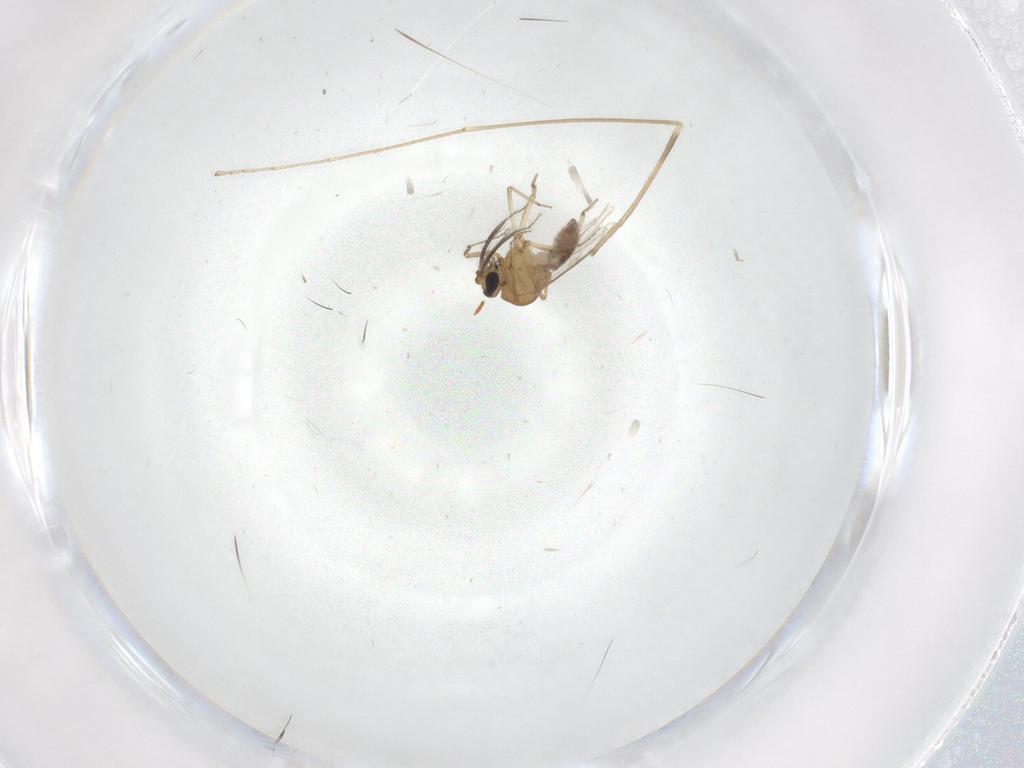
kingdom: Animalia
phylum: Arthropoda
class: Insecta
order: Diptera
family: Limoniidae
